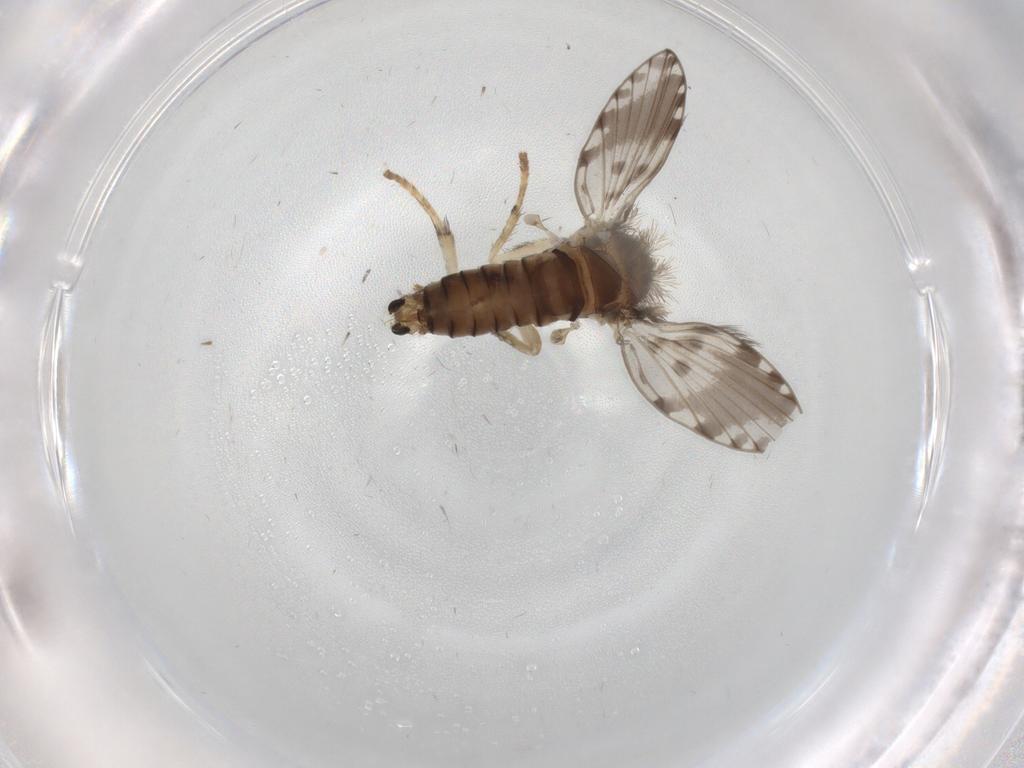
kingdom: Animalia
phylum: Arthropoda
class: Insecta
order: Diptera
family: Psychodidae
